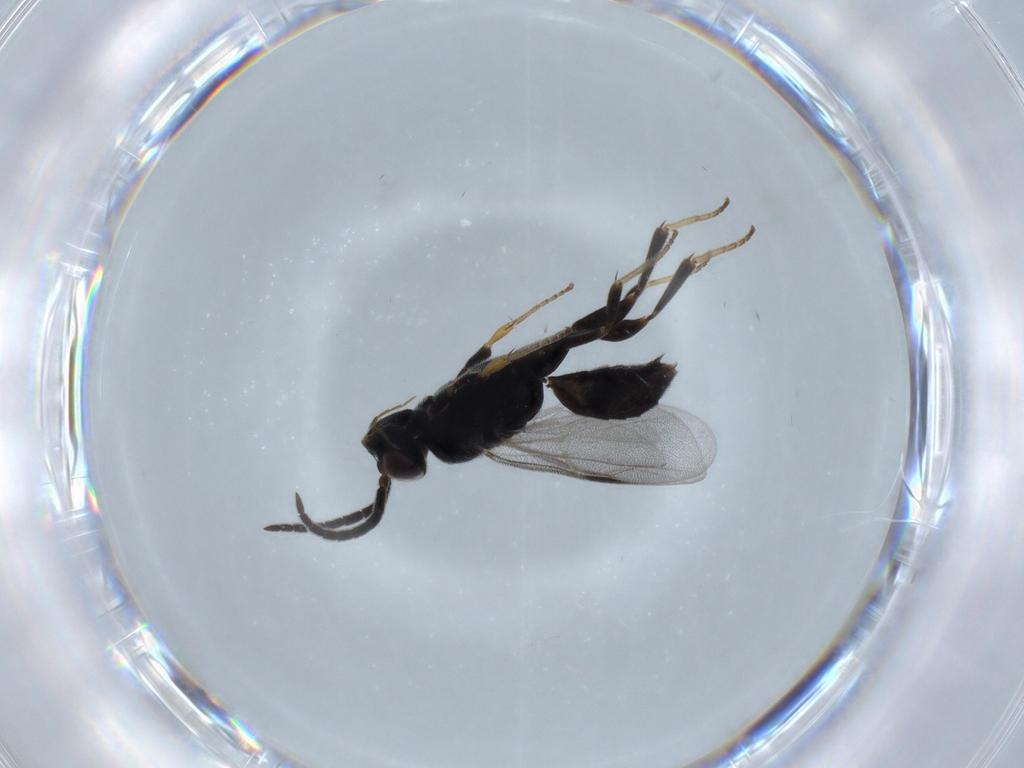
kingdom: Animalia
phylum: Arthropoda
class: Insecta
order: Hymenoptera
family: Dryinidae
